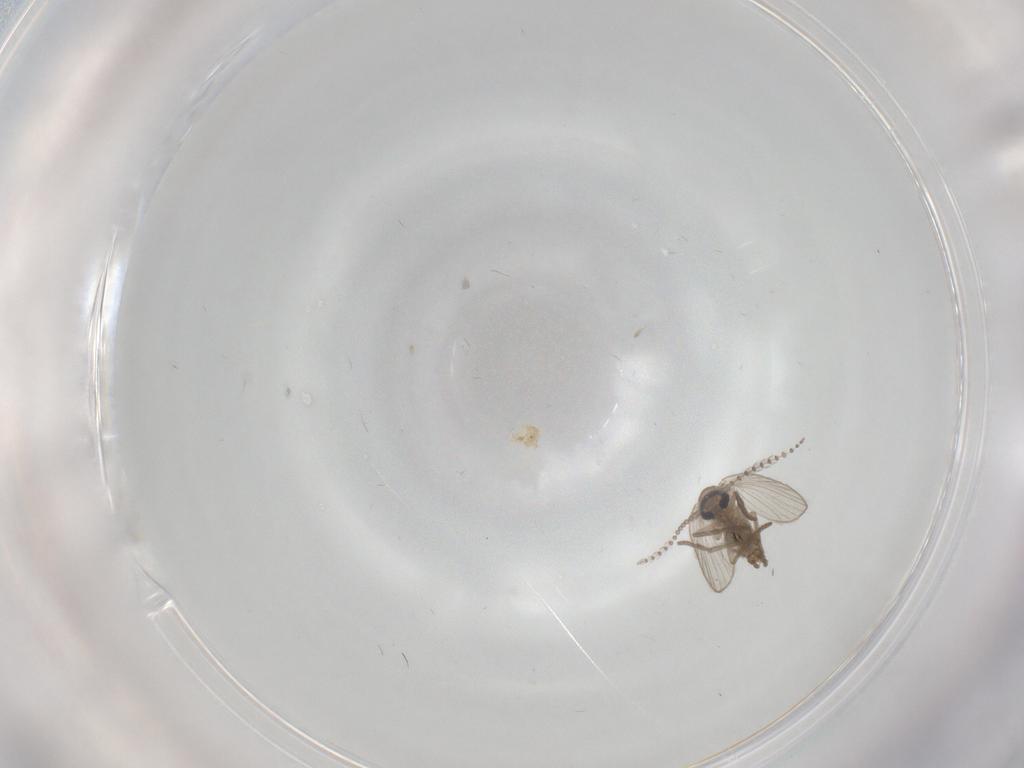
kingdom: Animalia
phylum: Arthropoda
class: Insecta
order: Diptera
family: Psychodidae
